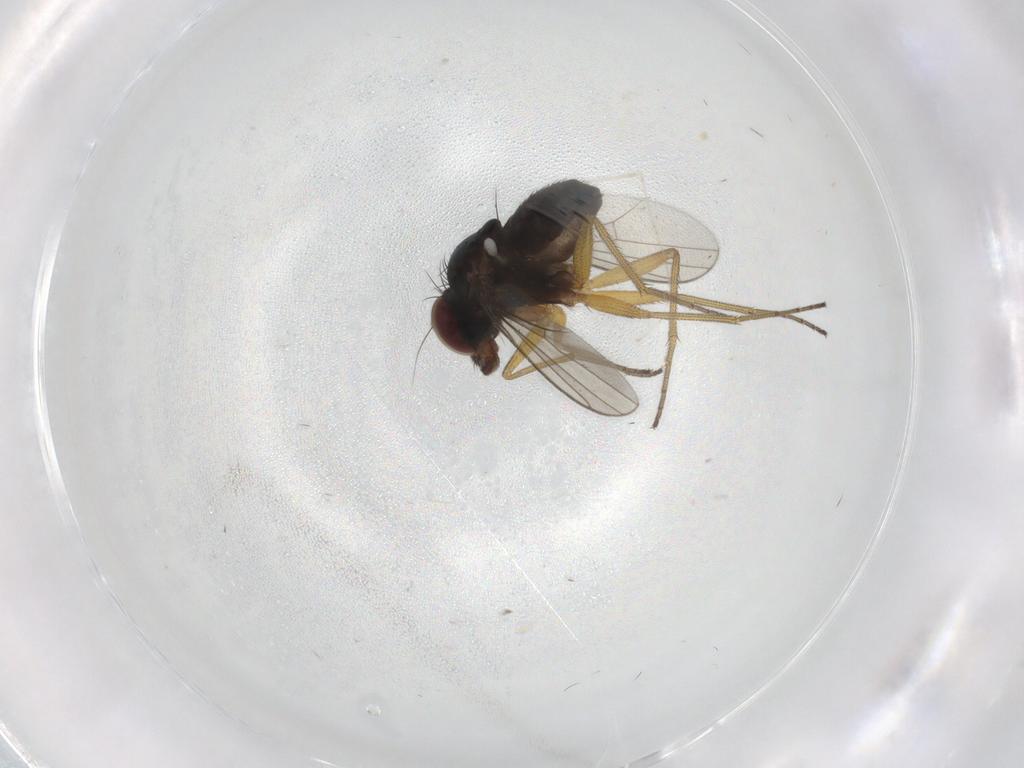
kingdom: Animalia
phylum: Arthropoda
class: Insecta
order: Diptera
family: Dolichopodidae
